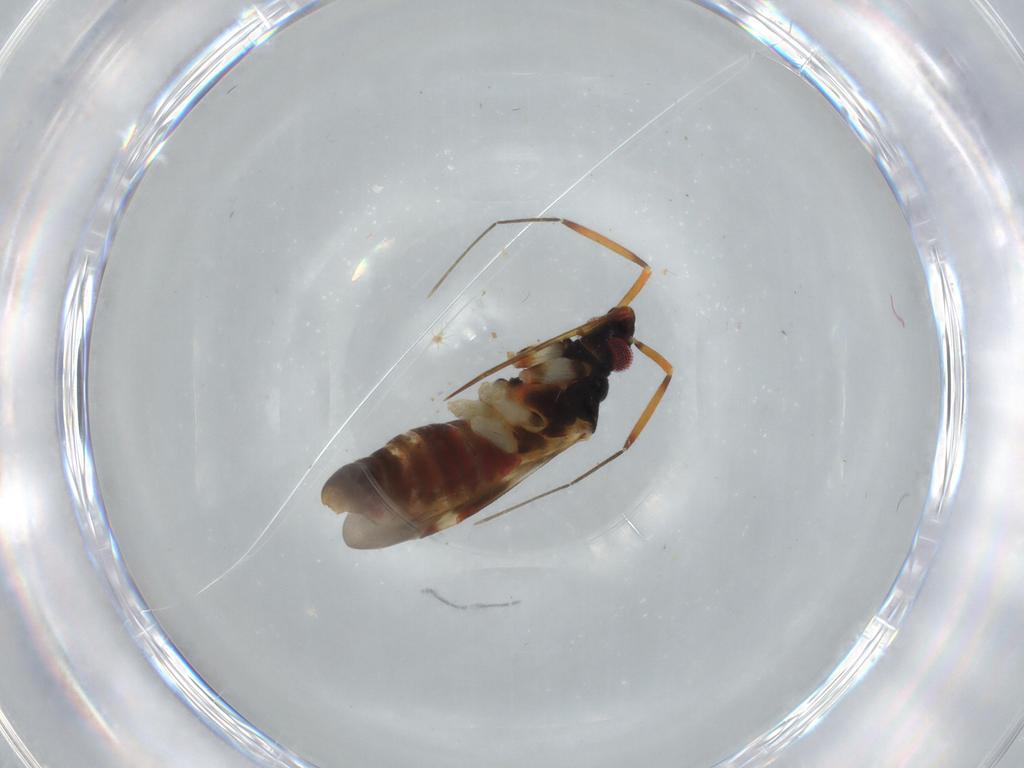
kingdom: Animalia
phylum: Arthropoda
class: Insecta
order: Hemiptera
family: Miridae
